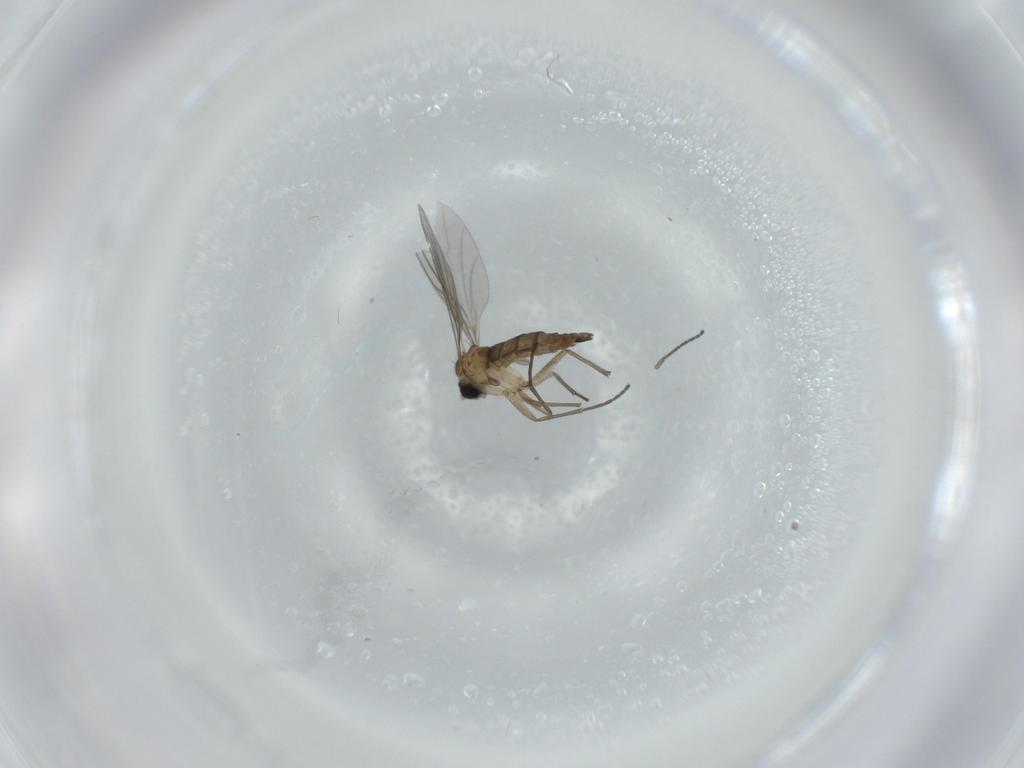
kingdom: Animalia
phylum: Arthropoda
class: Insecta
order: Diptera
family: Sciaridae
